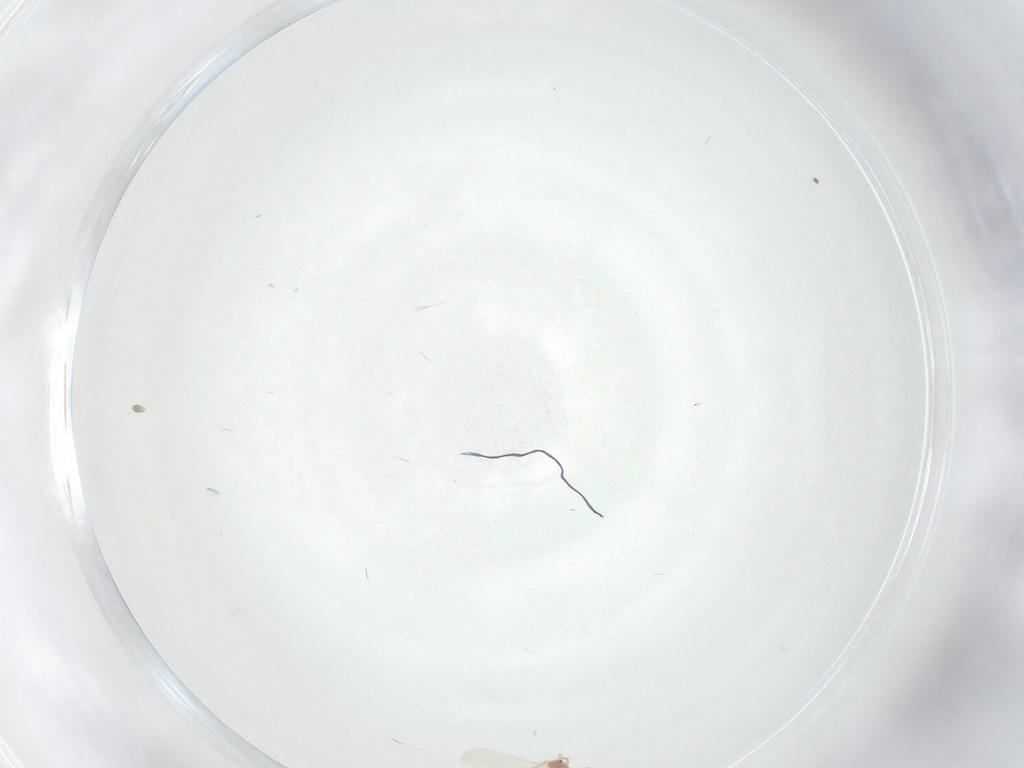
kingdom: Animalia
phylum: Arthropoda
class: Insecta
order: Hymenoptera
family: Formicidae
